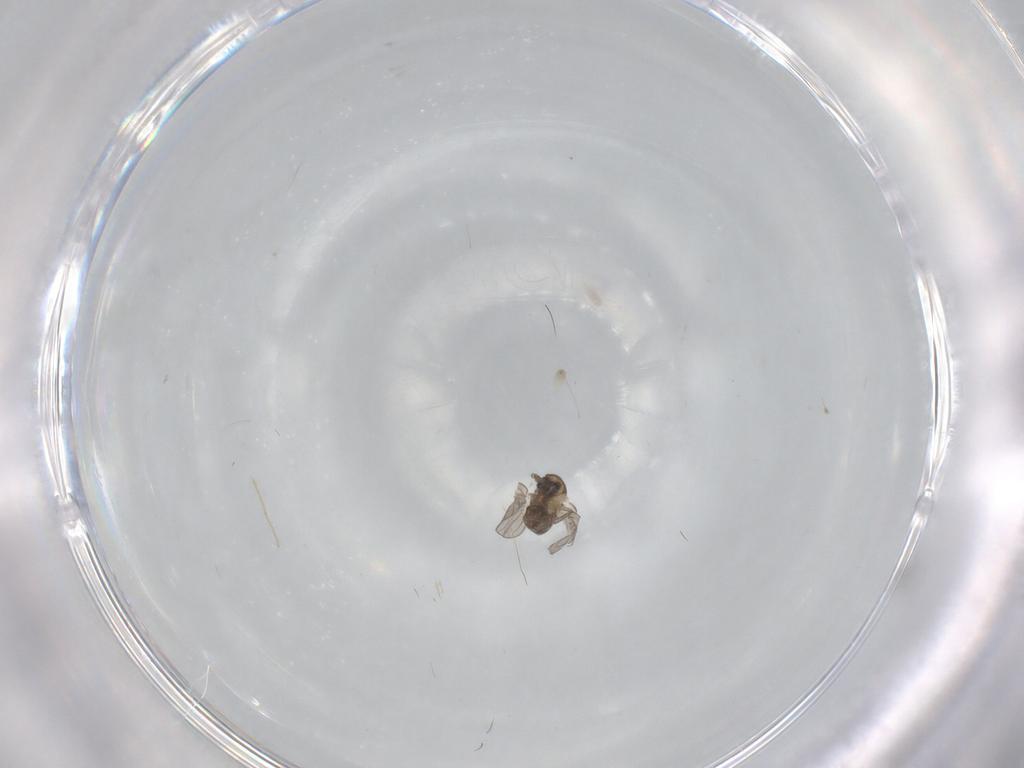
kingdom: Animalia
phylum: Arthropoda
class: Insecta
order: Diptera
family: Psychodidae
